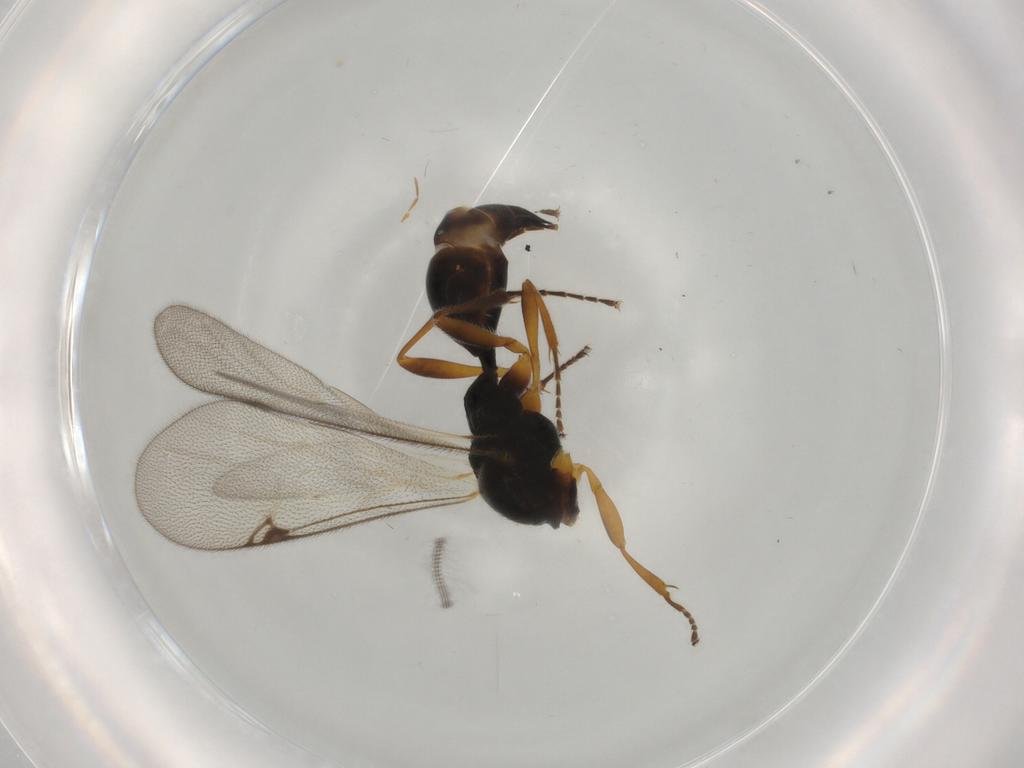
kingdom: Animalia
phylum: Arthropoda
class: Insecta
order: Hymenoptera
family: Proctotrupidae
